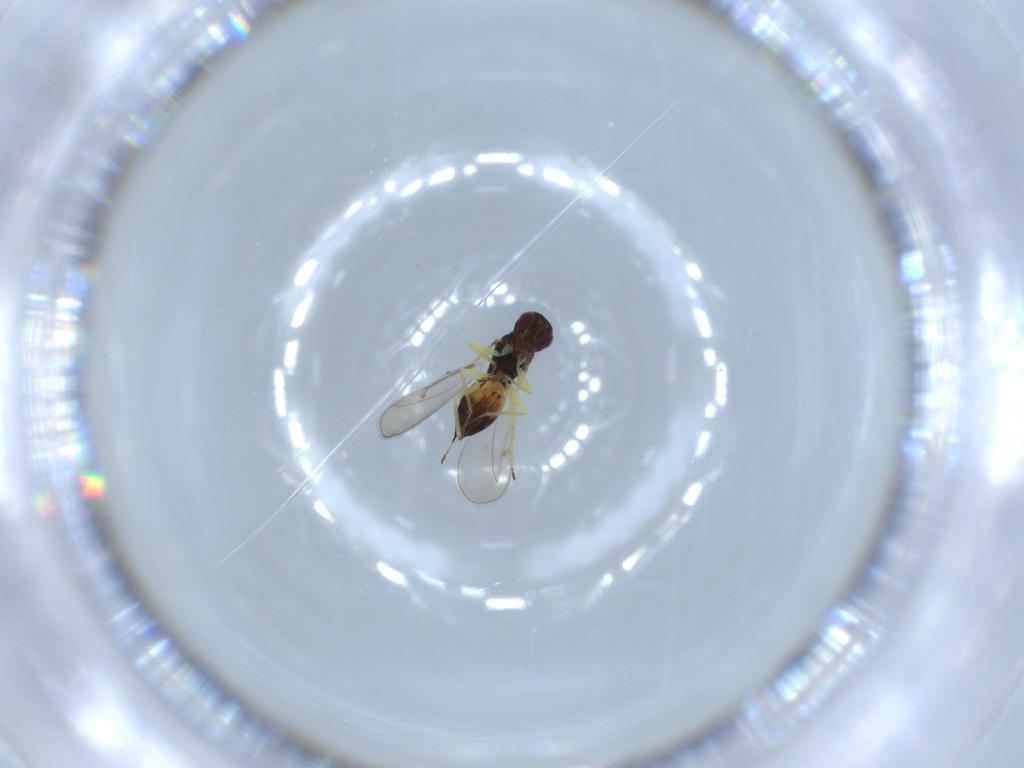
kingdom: Animalia
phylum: Arthropoda
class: Insecta
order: Hymenoptera
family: Eulophidae
